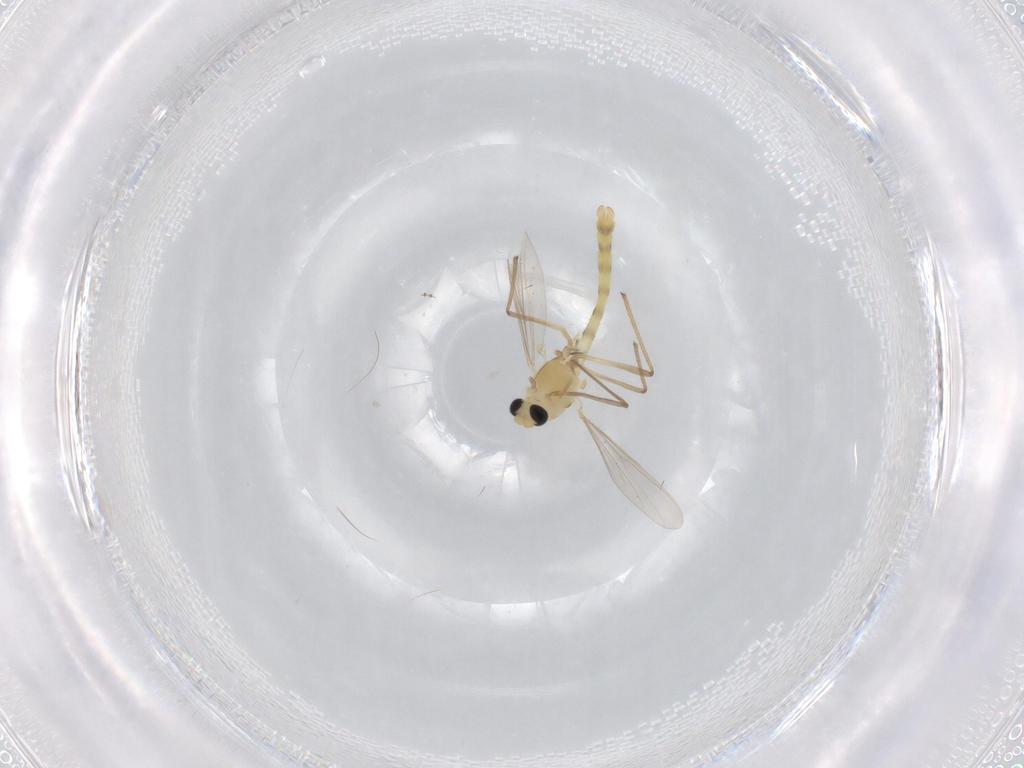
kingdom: Animalia
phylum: Arthropoda
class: Insecta
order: Diptera
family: Chironomidae
